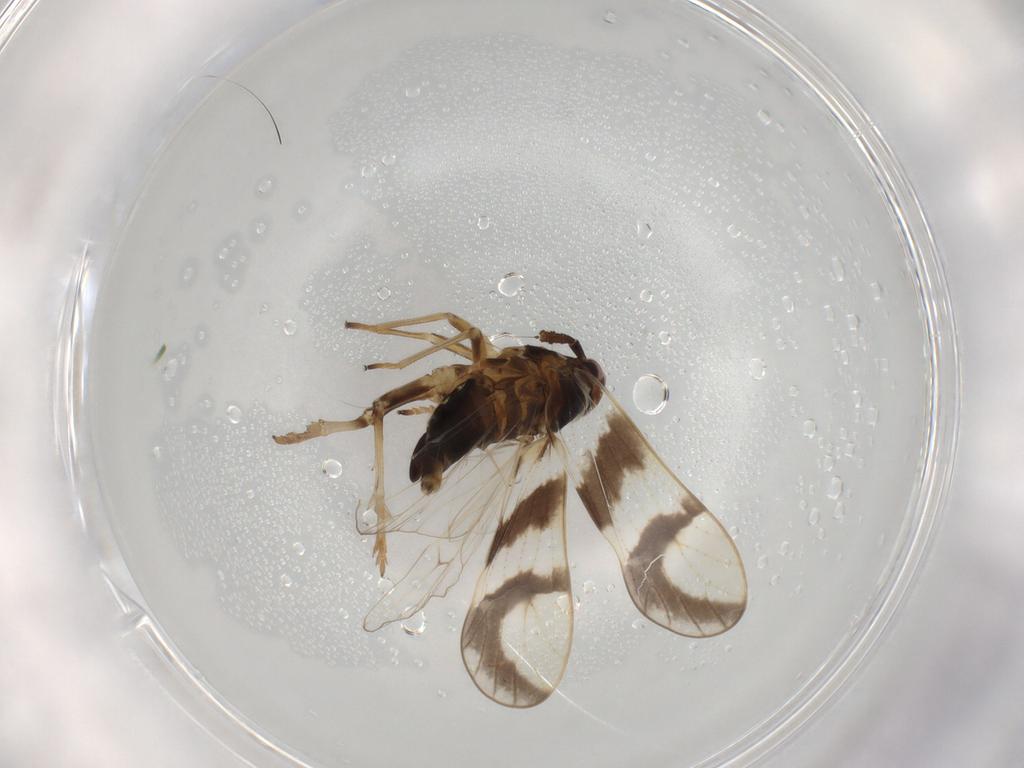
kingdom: Animalia
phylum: Arthropoda
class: Insecta
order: Hemiptera
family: Delphacidae
